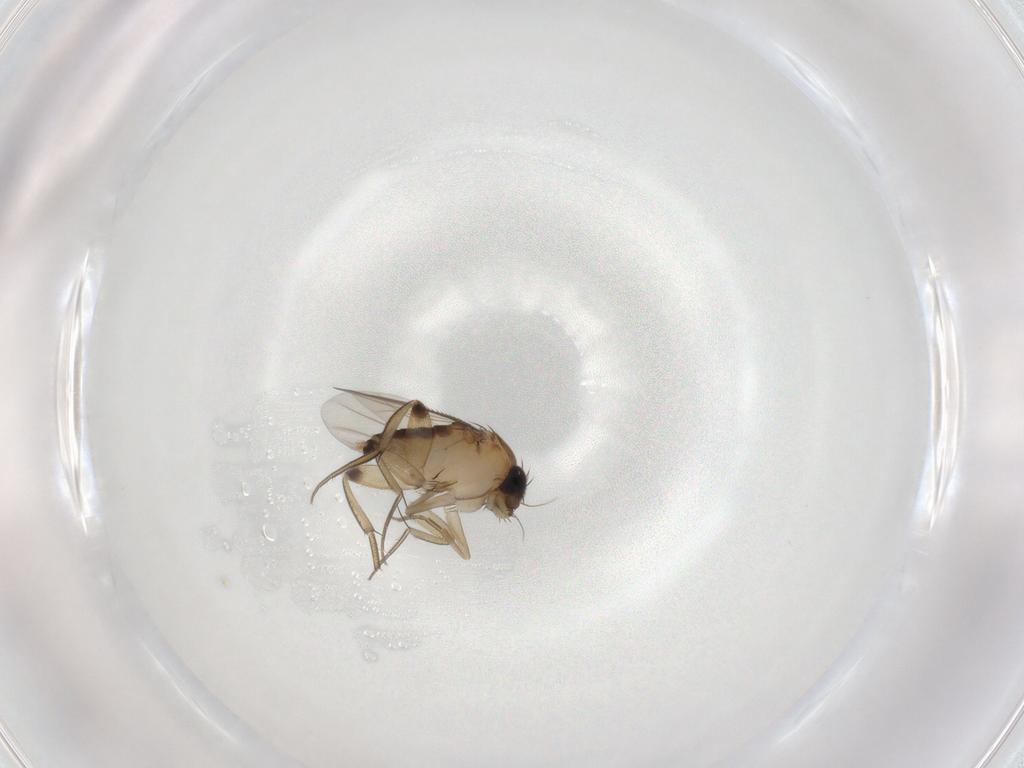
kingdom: Animalia
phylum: Arthropoda
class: Insecta
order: Diptera
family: Phoridae
